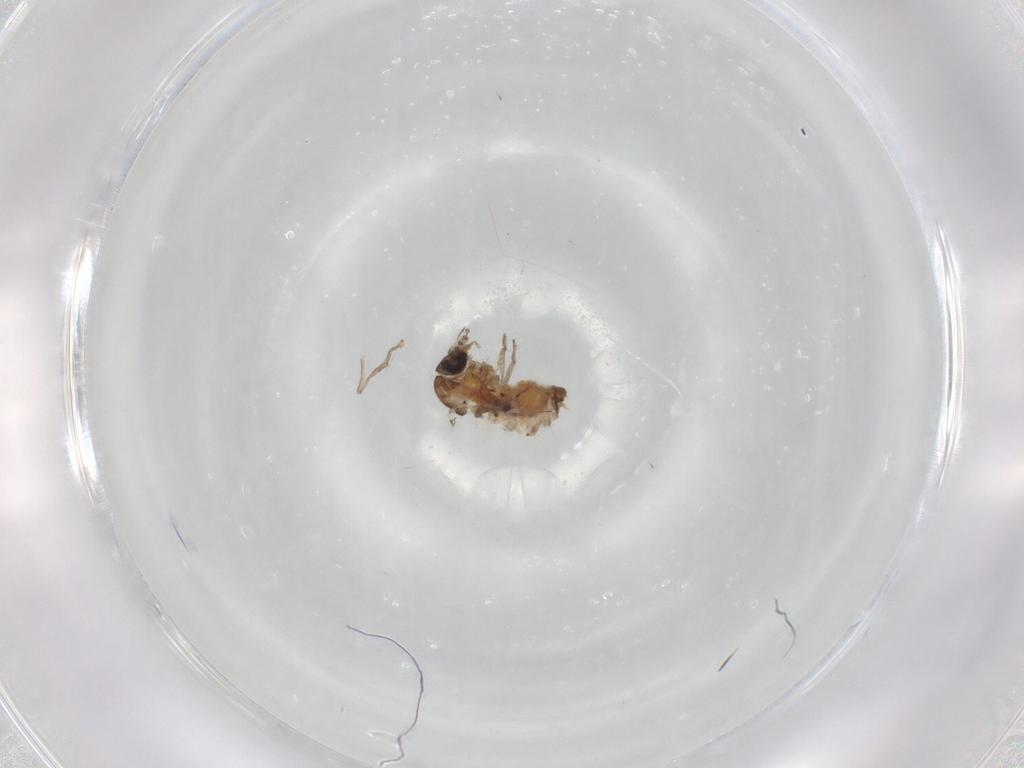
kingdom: Animalia
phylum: Arthropoda
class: Insecta
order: Diptera
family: Psychodidae
